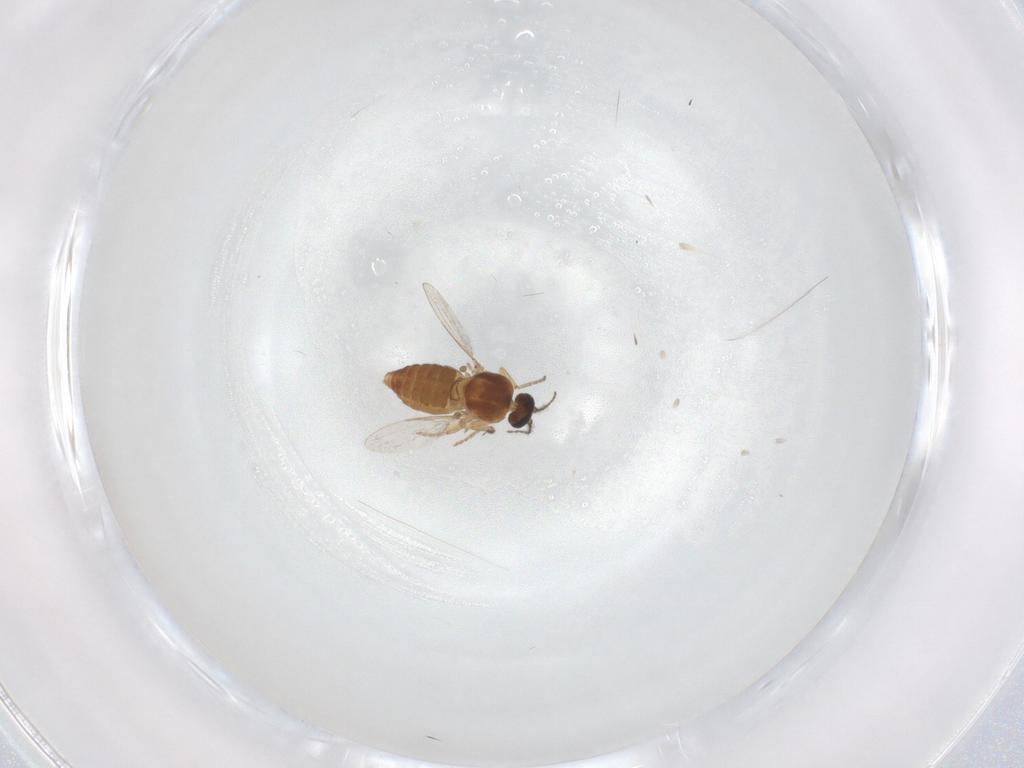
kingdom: Animalia
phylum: Arthropoda
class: Insecta
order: Diptera
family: Ceratopogonidae
